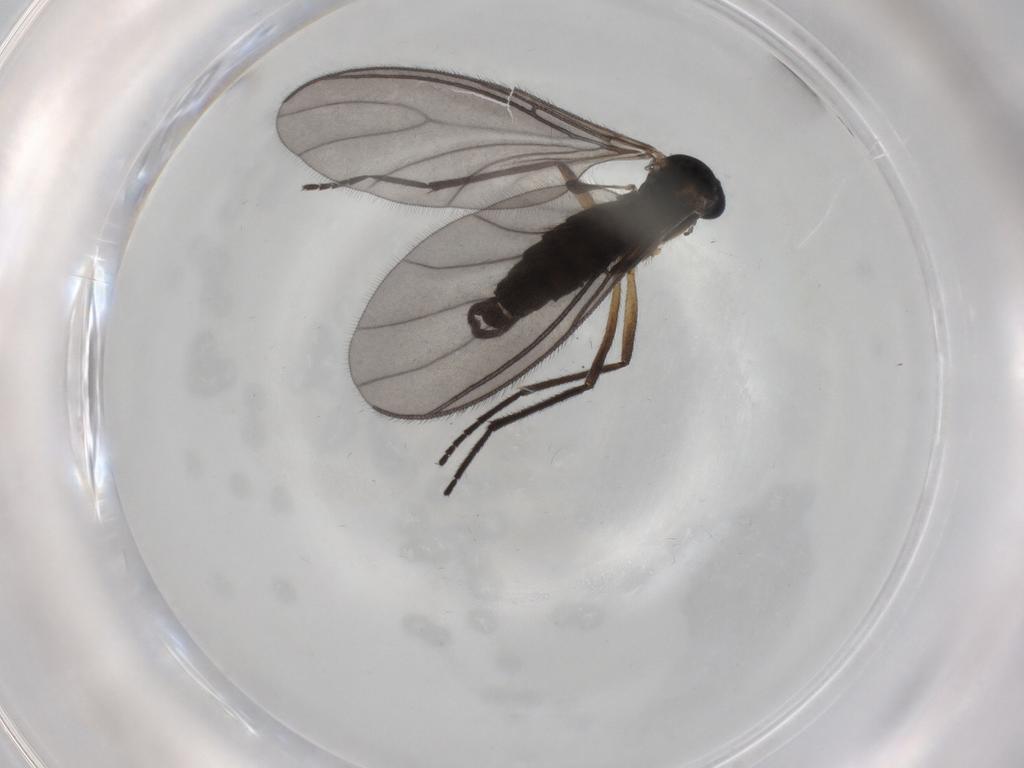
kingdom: Animalia
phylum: Arthropoda
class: Insecta
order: Diptera
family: Sciaridae
